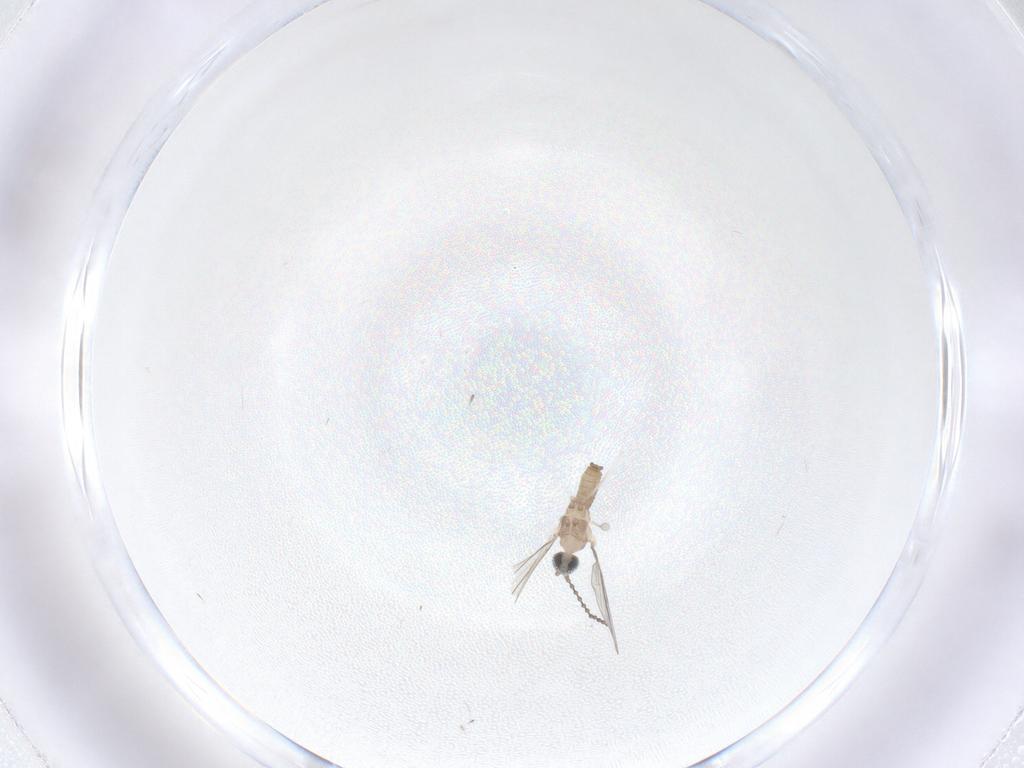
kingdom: Animalia
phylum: Arthropoda
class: Insecta
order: Diptera
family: Cecidomyiidae
